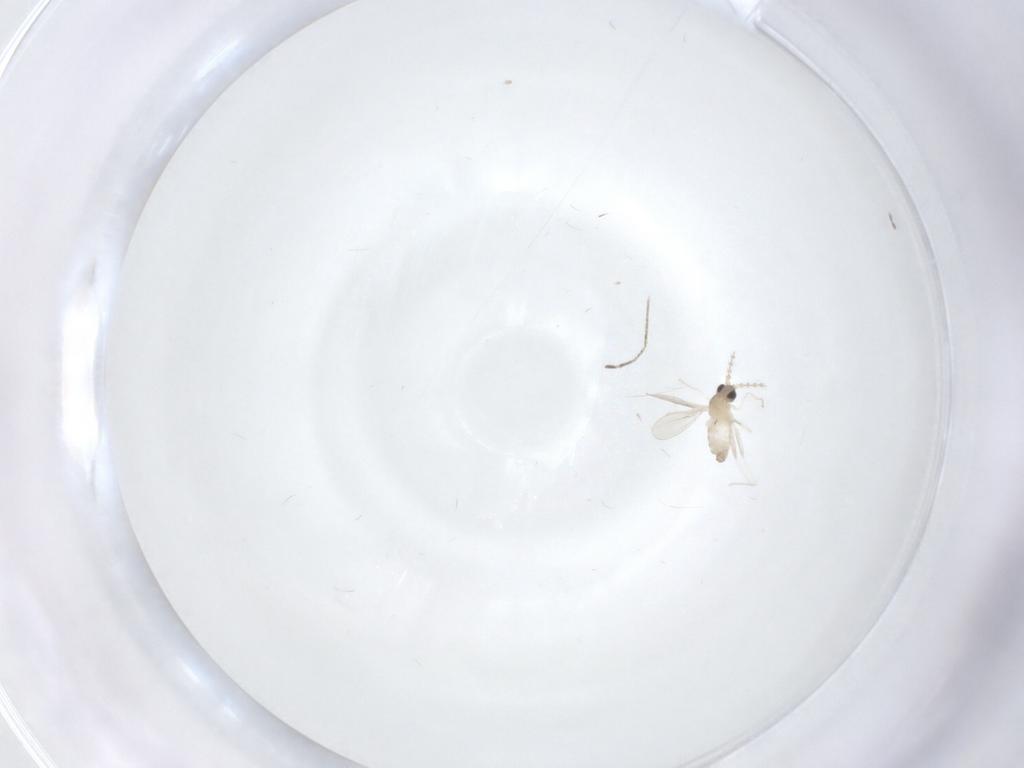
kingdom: Animalia
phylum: Arthropoda
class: Insecta
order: Diptera
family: Cecidomyiidae
